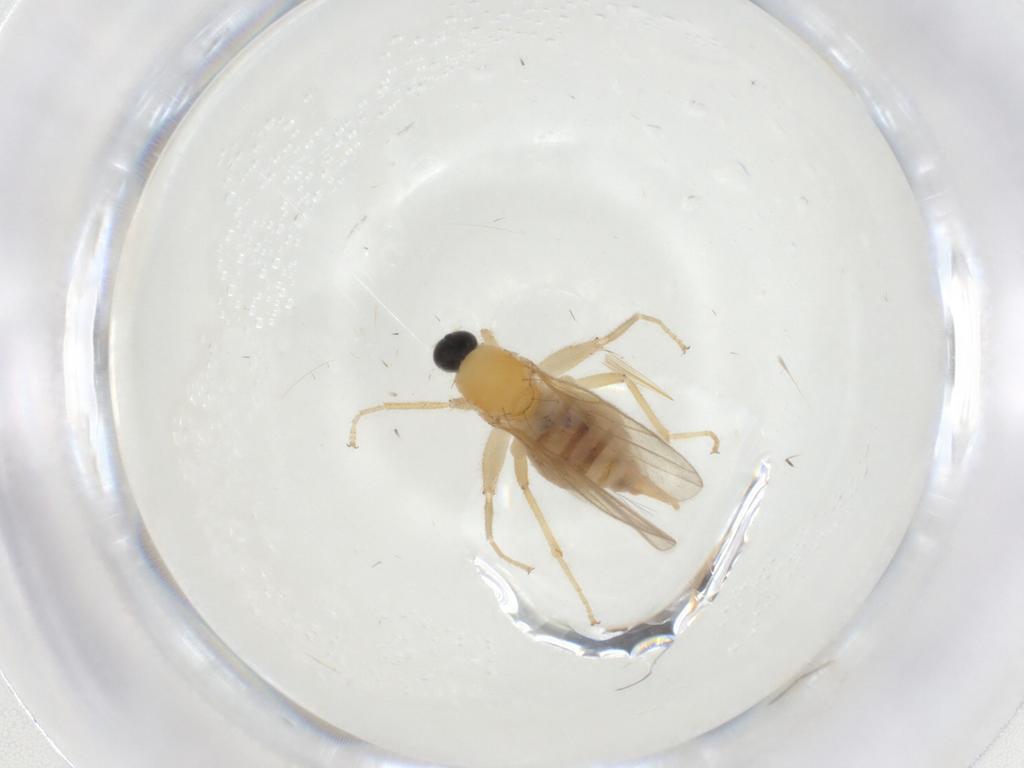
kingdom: Animalia
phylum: Arthropoda
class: Insecta
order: Diptera
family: Sciaridae
